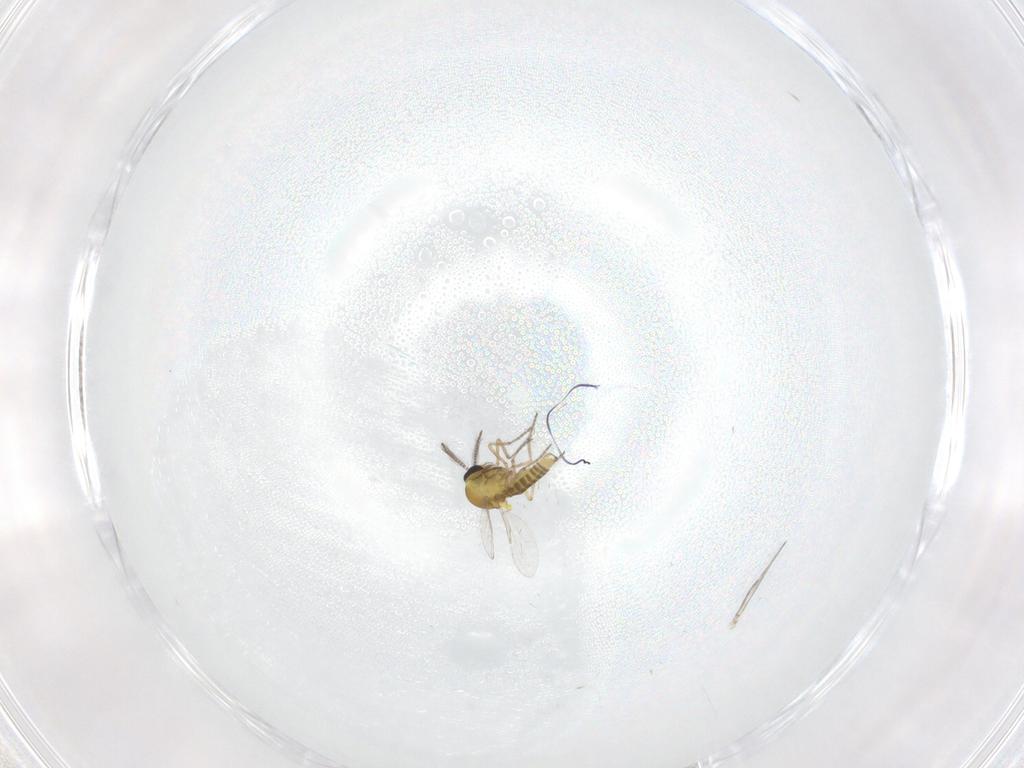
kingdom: Animalia
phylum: Arthropoda
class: Insecta
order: Diptera
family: Ceratopogonidae
